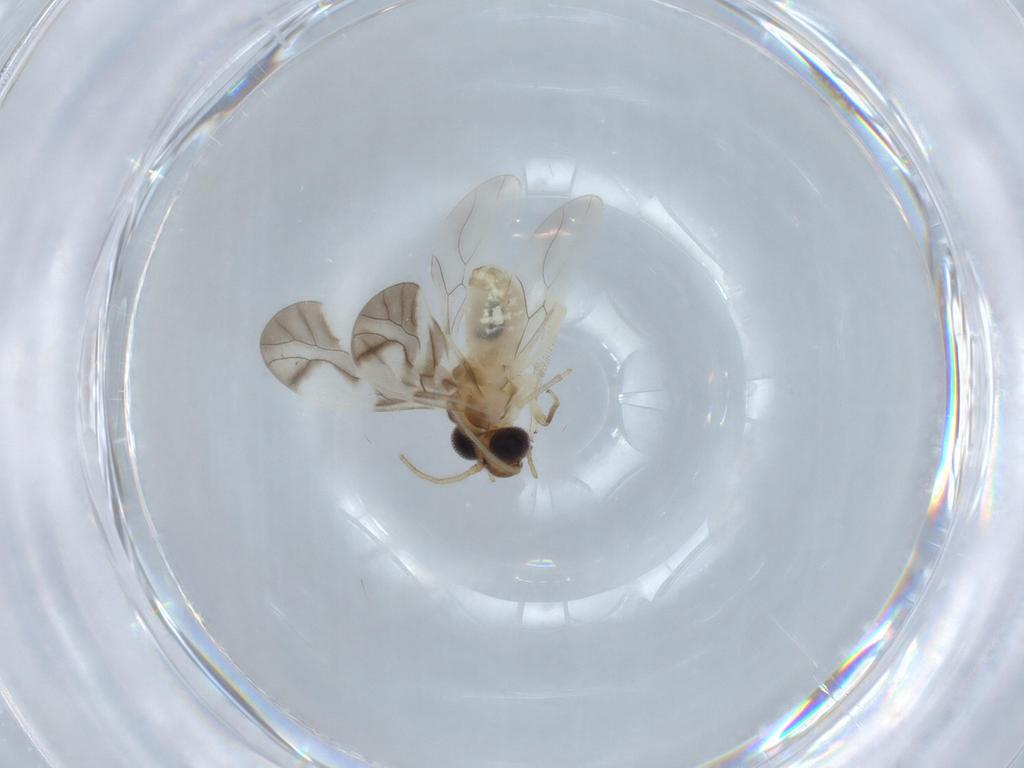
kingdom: Animalia
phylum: Arthropoda
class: Insecta
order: Psocodea
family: Caeciliusidae
